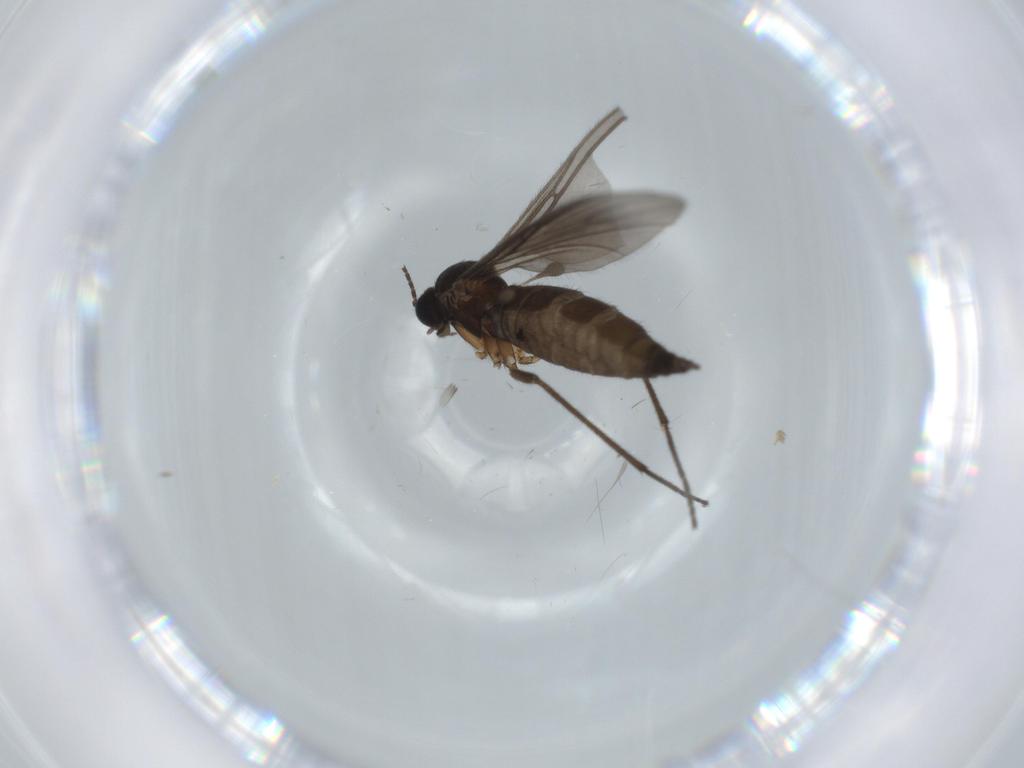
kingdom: Animalia
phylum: Arthropoda
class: Insecta
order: Diptera
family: Sciaridae
